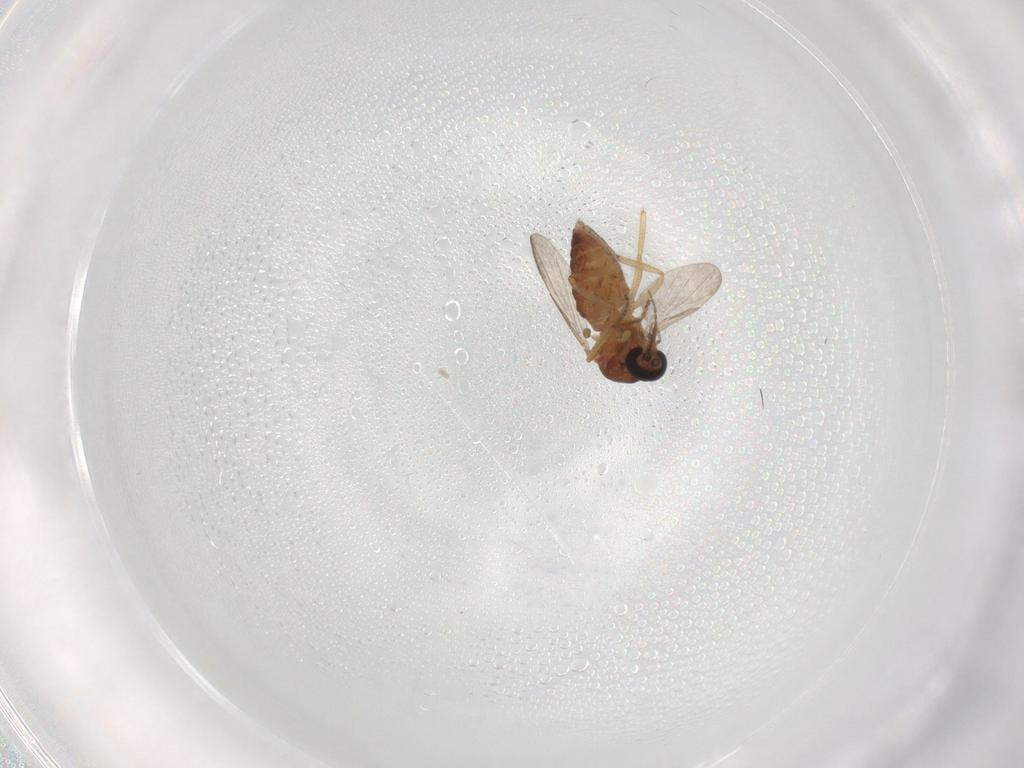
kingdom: Animalia
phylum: Arthropoda
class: Insecta
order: Diptera
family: Ceratopogonidae
